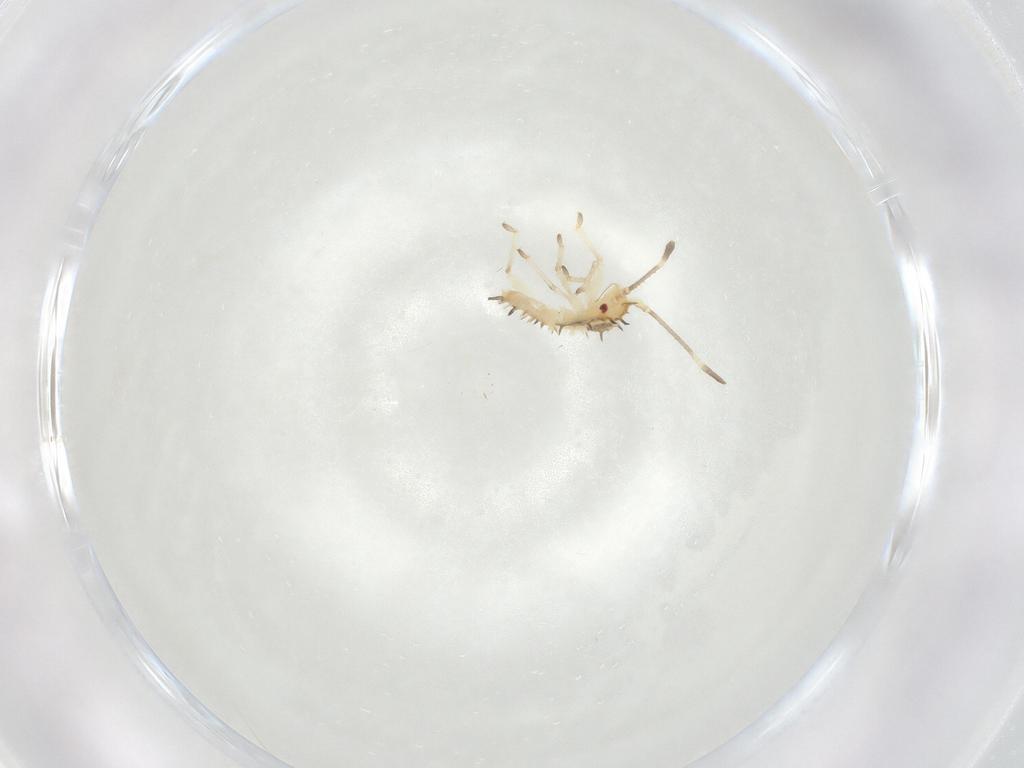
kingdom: Animalia
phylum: Arthropoda
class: Insecta
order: Hemiptera
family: Tingidae
